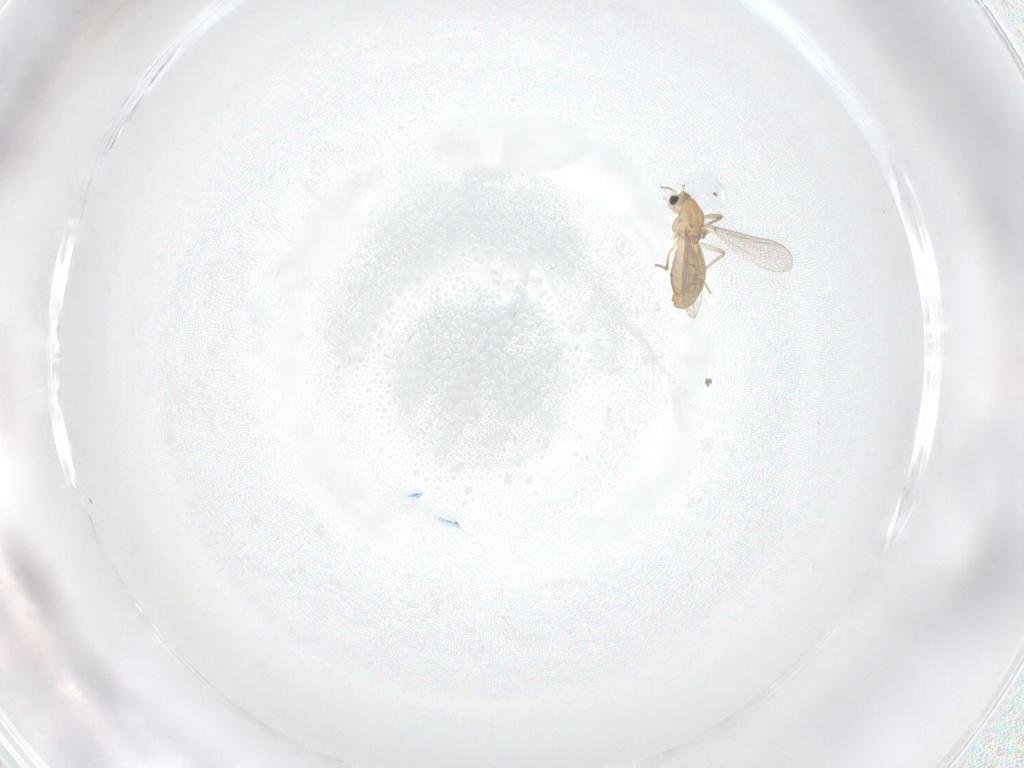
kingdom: Animalia
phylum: Arthropoda
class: Insecta
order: Diptera
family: Chironomidae
